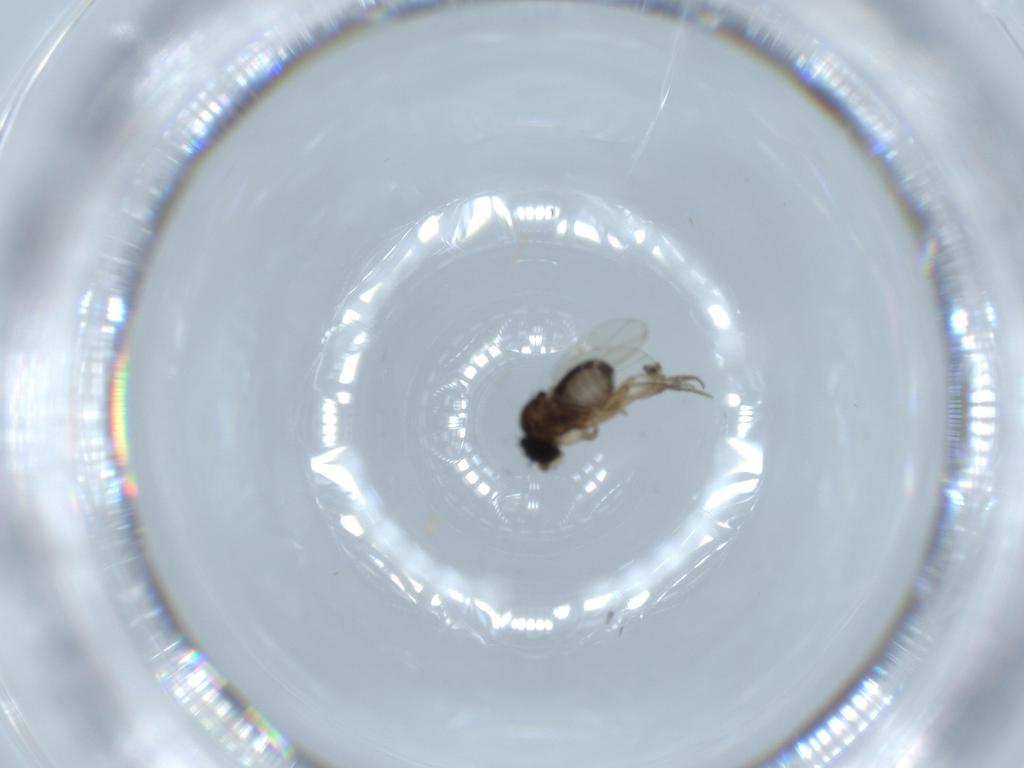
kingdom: Animalia
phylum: Arthropoda
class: Insecta
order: Diptera
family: Phoridae
